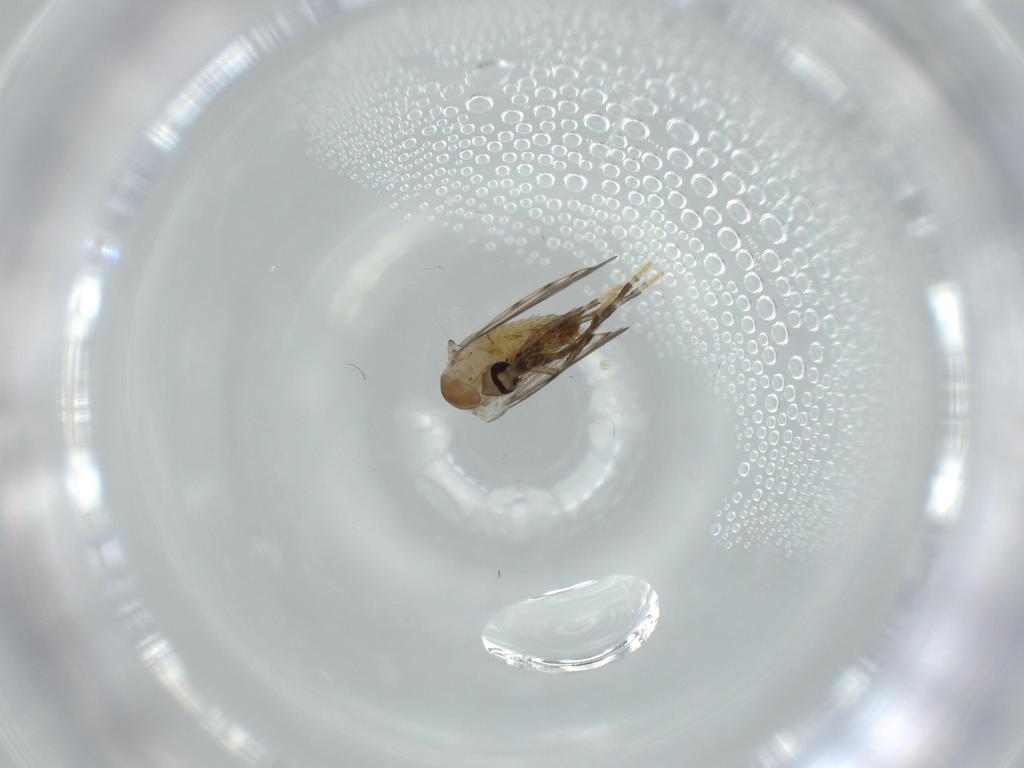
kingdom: Animalia
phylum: Arthropoda
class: Insecta
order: Diptera
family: Psychodidae
